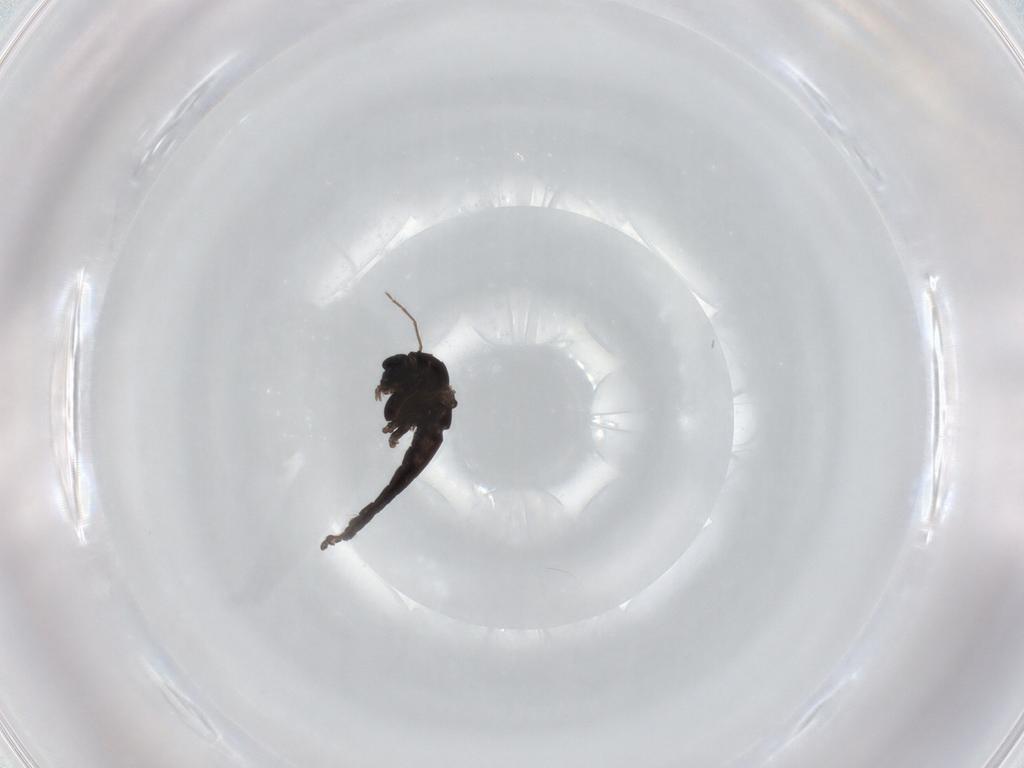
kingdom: Animalia
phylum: Arthropoda
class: Insecta
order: Diptera
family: Chironomidae
